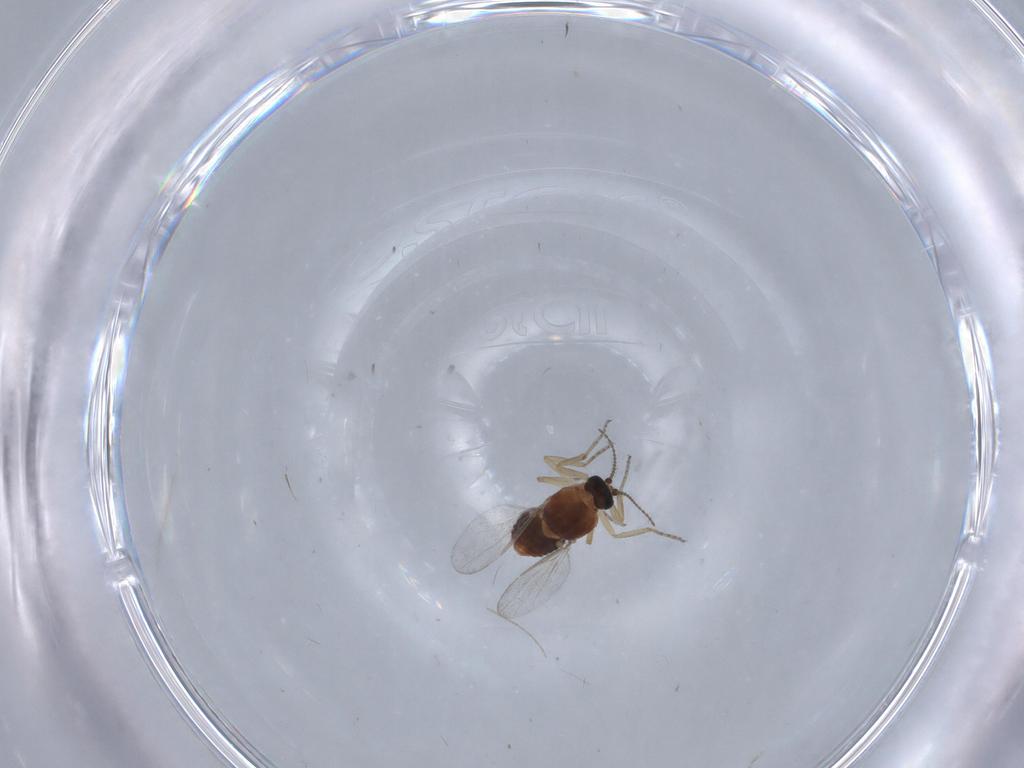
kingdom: Animalia
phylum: Arthropoda
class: Insecta
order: Diptera
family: Ceratopogonidae
